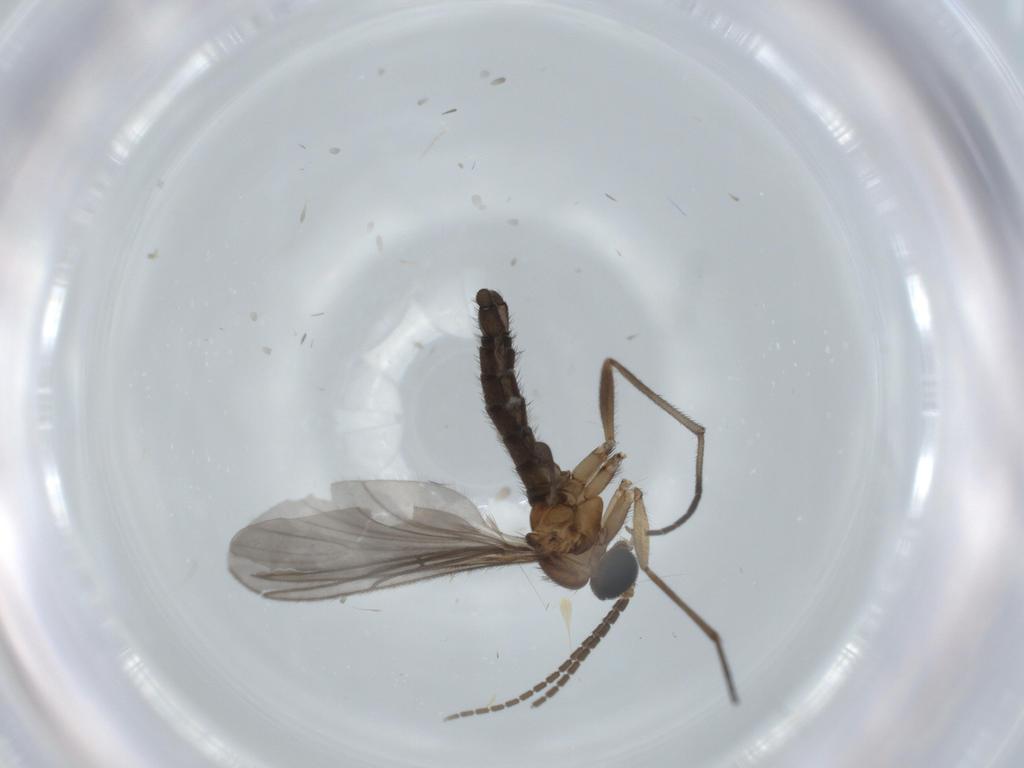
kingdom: Animalia
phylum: Arthropoda
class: Insecta
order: Diptera
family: Sciaridae
